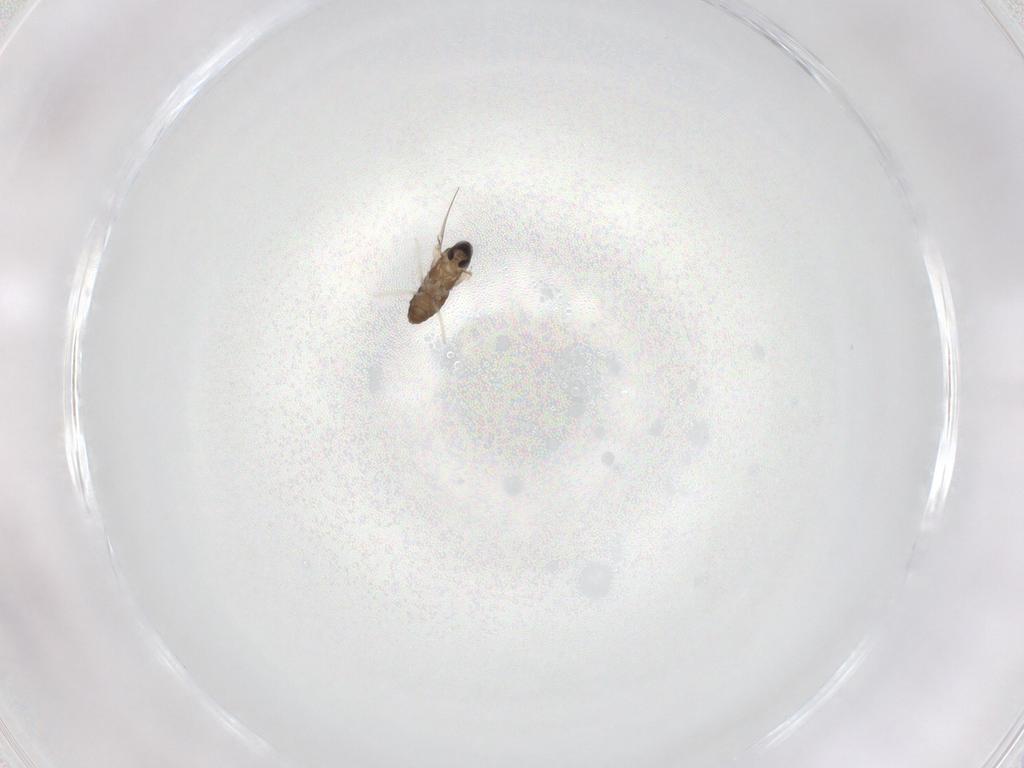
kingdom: Animalia
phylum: Arthropoda
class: Insecta
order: Diptera
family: Cecidomyiidae
